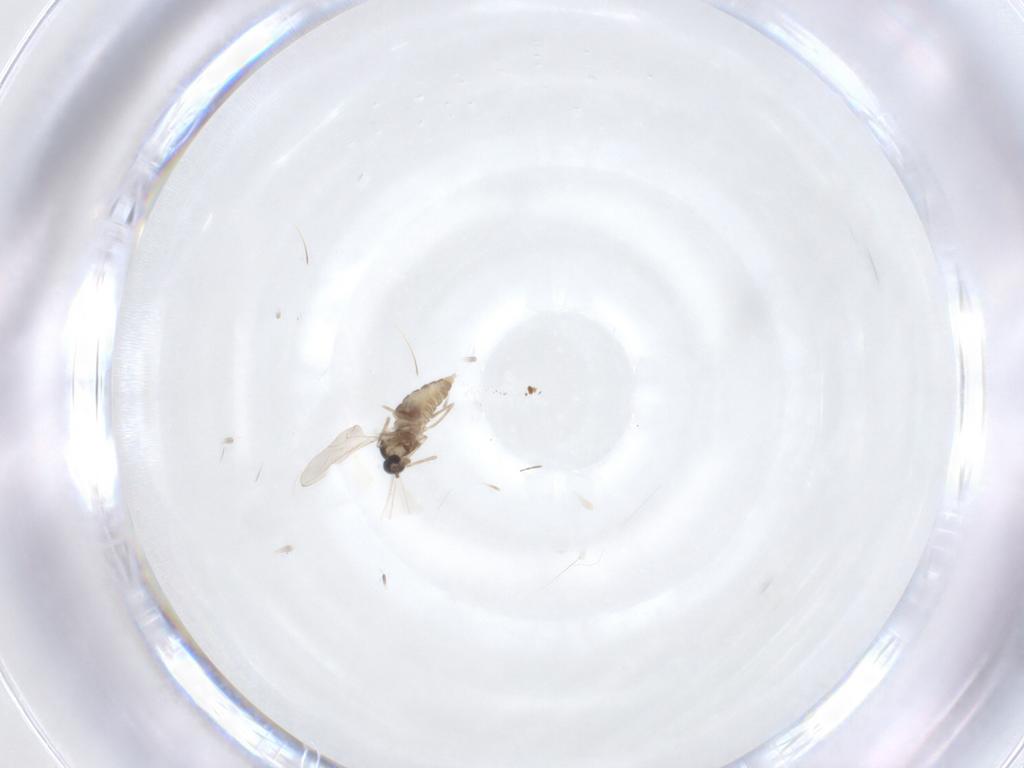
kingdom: Animalia
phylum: Arthropoda
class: Insecta
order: Diptera
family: Chironomidae
